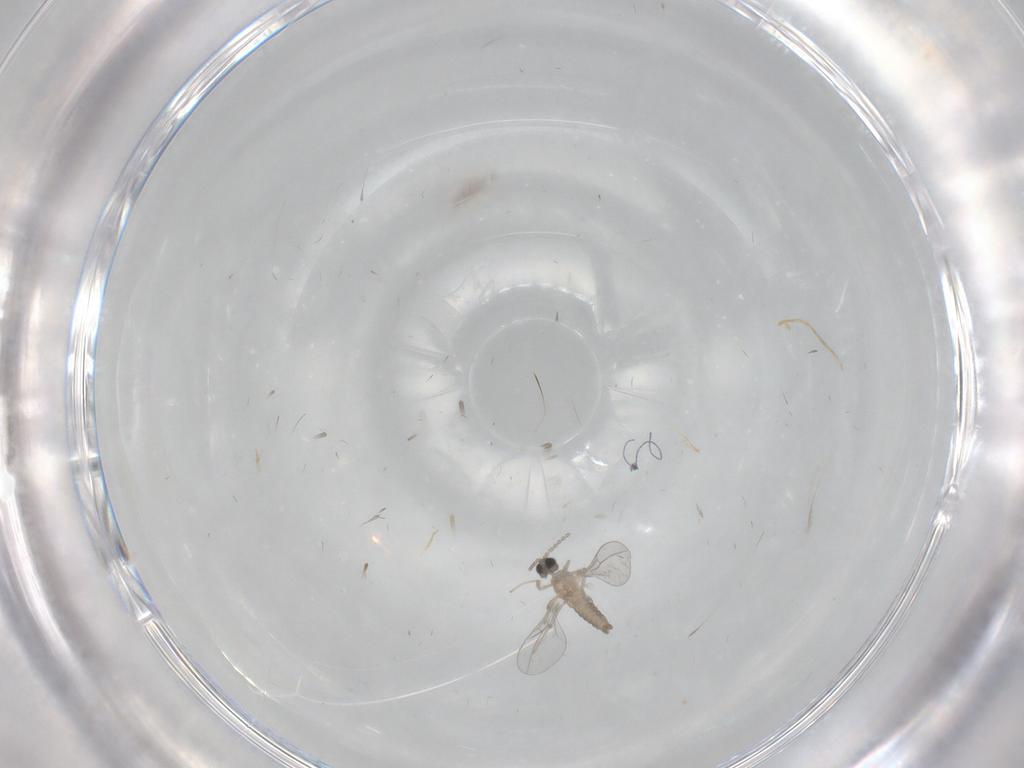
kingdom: Animalia
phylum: Arthropoda
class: Insecta
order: Diptera
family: Cecidomyiidae
